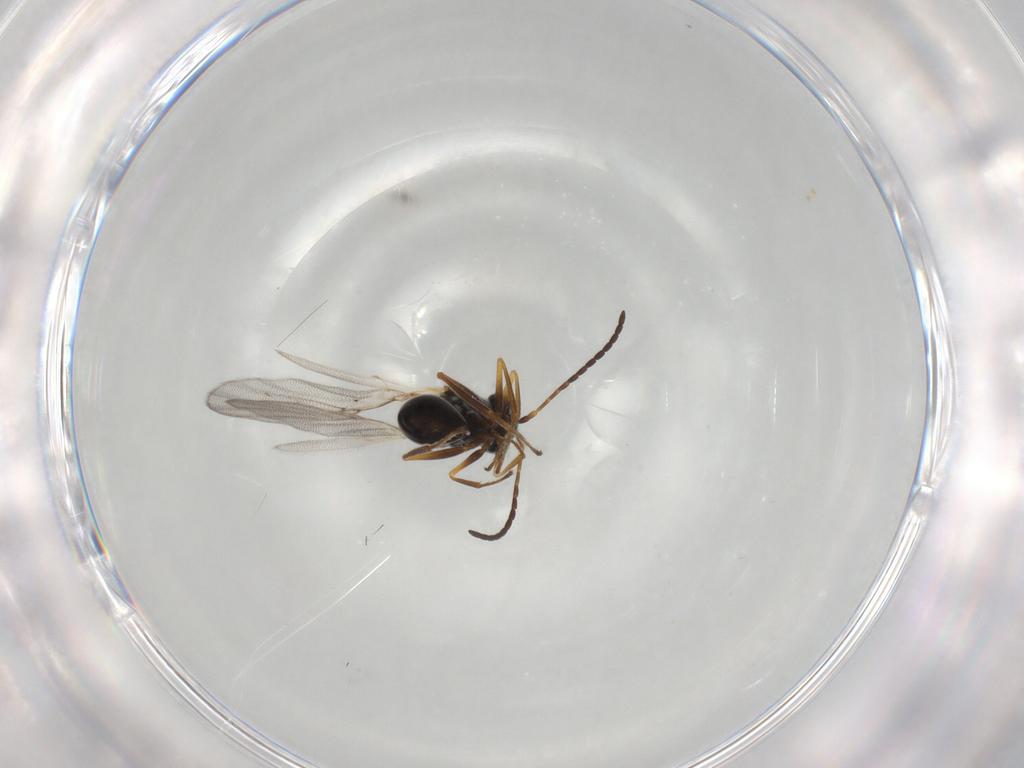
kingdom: Animalia
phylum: Arthropoda
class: Insecta
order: Hymenoptera
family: Figitidae
